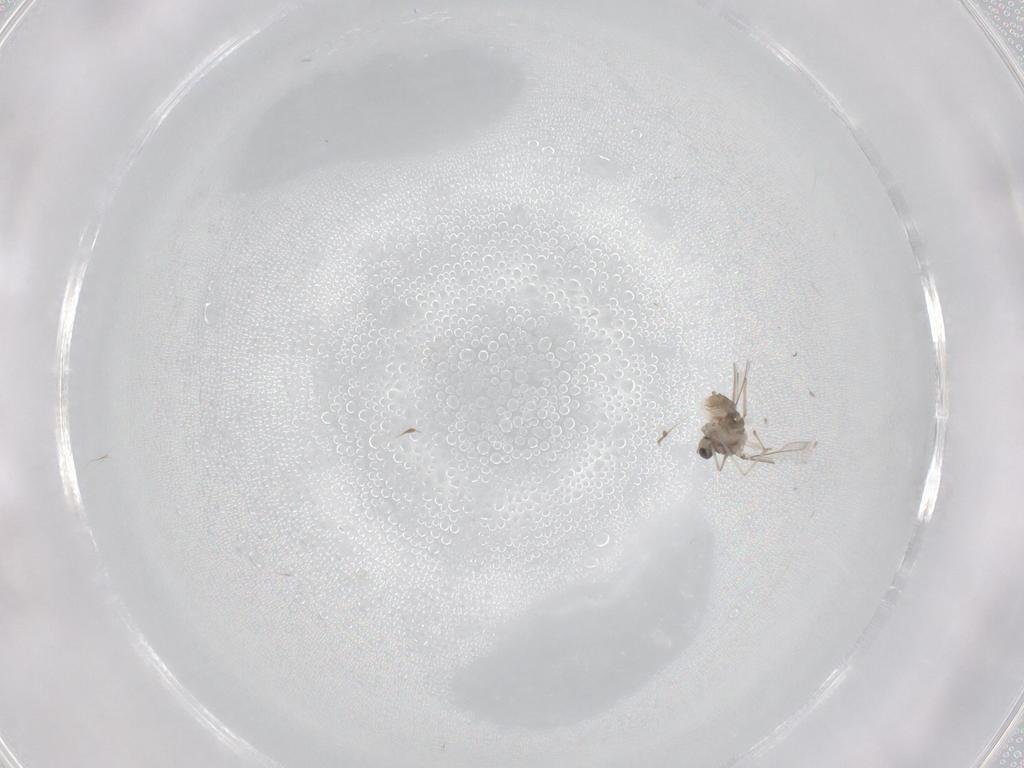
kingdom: Animalia
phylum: Arthropoda
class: Insecta
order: Diptera
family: Cecidomyiidae
